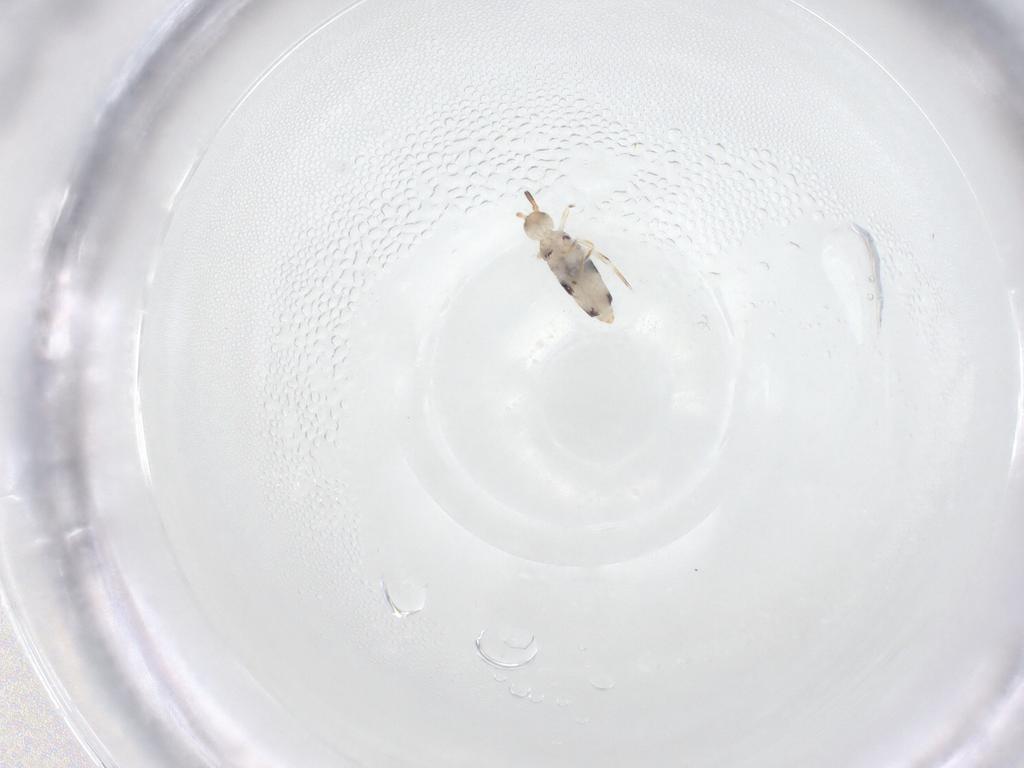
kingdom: Animalia
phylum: Arthropoda
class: Collembola
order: Entomobryomorpha
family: Entomobryidae
